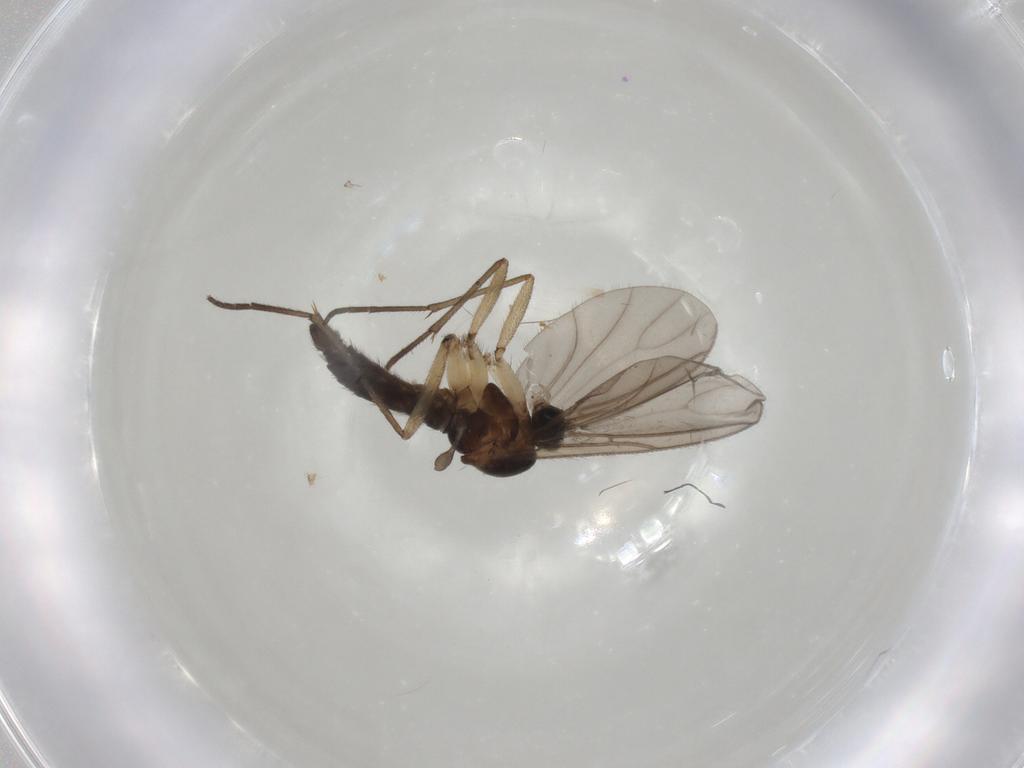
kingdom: Animalia
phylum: Arthropoda
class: Insecta
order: Diptera
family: Sciaridae
